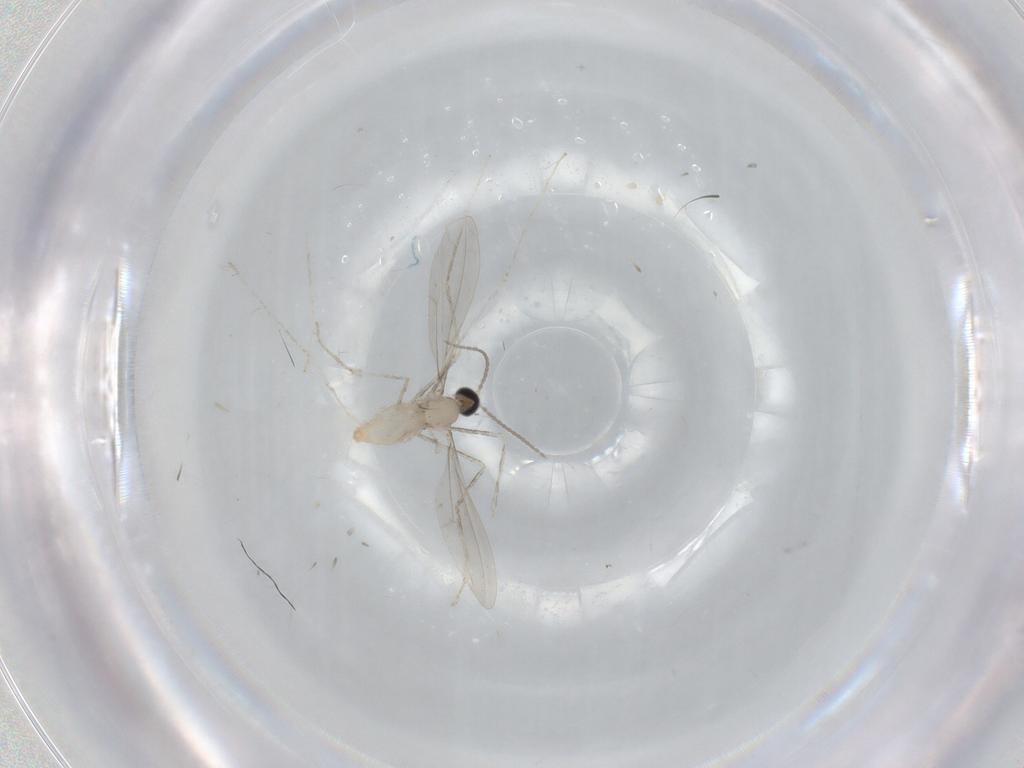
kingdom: Animalia
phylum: Arthropoda
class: Insecta
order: Diptera
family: Cecidomyiidae
